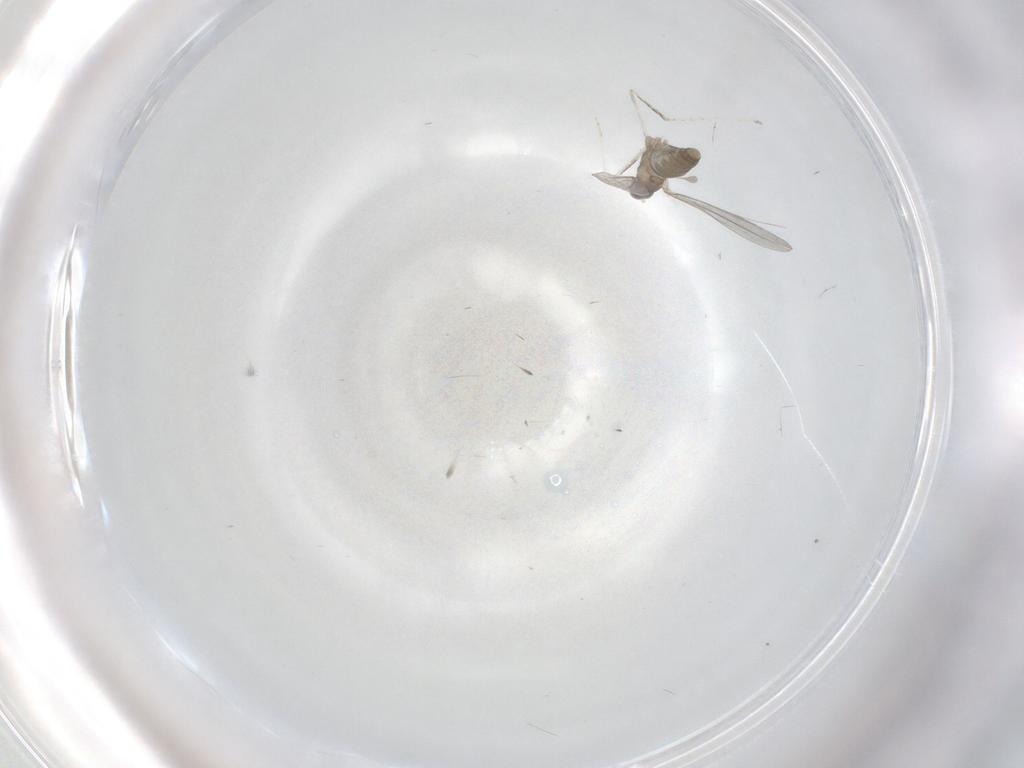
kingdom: Animalia
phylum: Arthropoda
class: Insecta
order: Diptera
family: Cecidomyiidae
